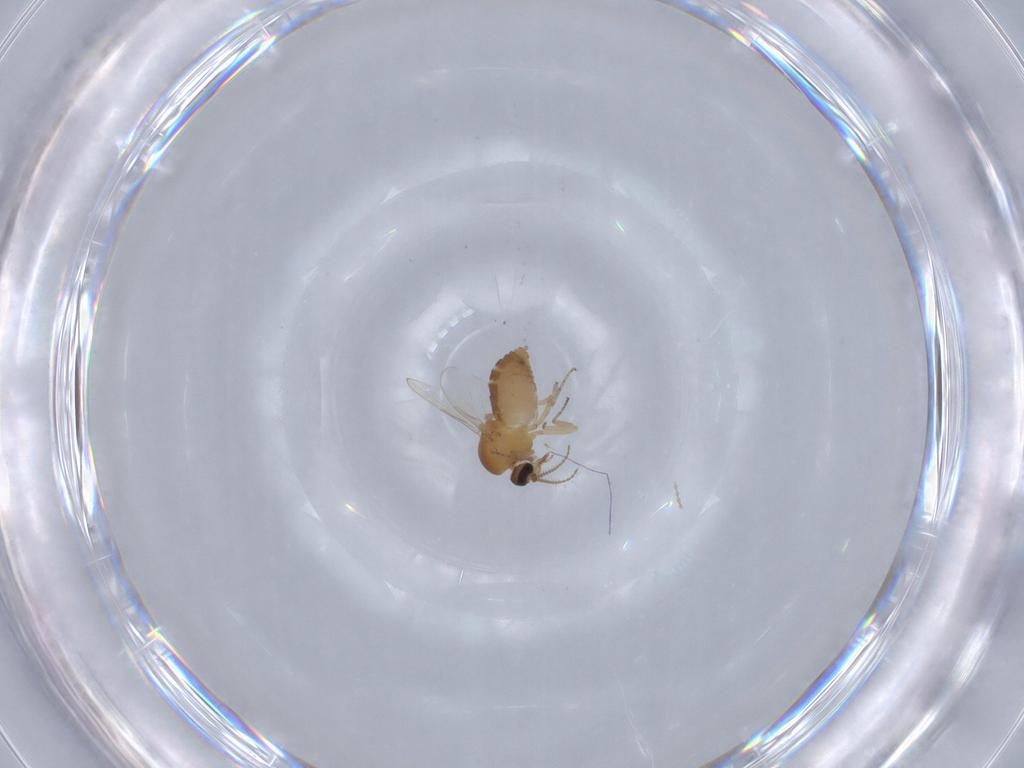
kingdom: Animalia
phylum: Arthropoda
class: Insecta
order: Diptera
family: Ceratopogonidae
